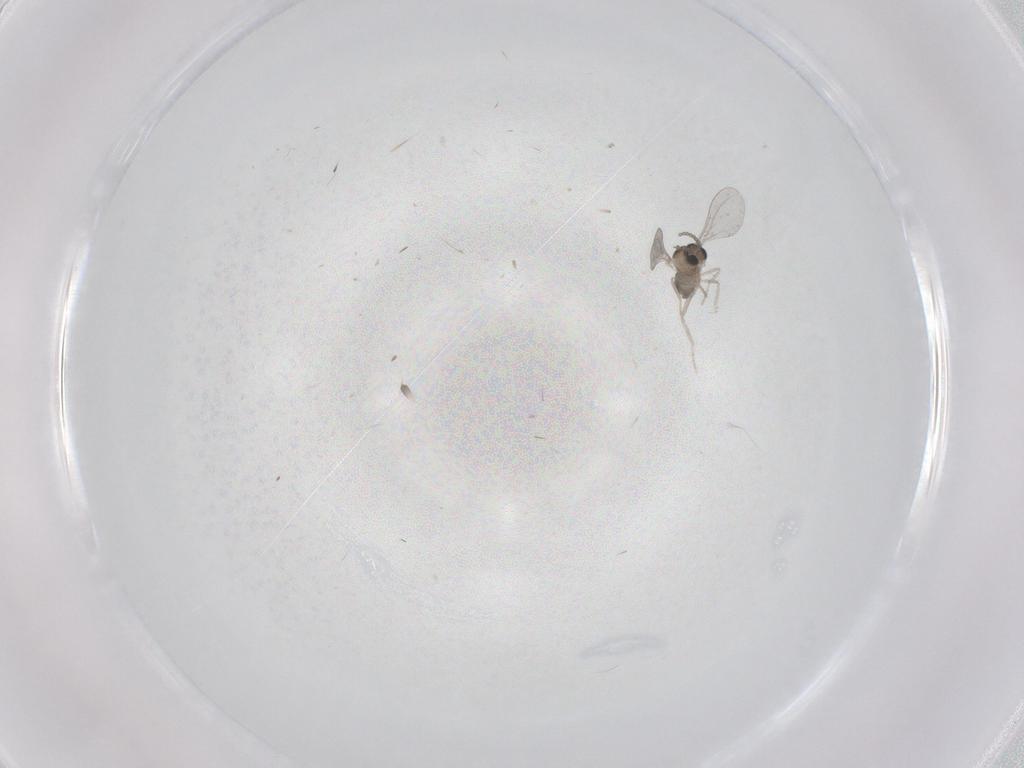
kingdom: Animalia
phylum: Arthropoda
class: Insecta
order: Diptera
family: Cecidomyiidae
